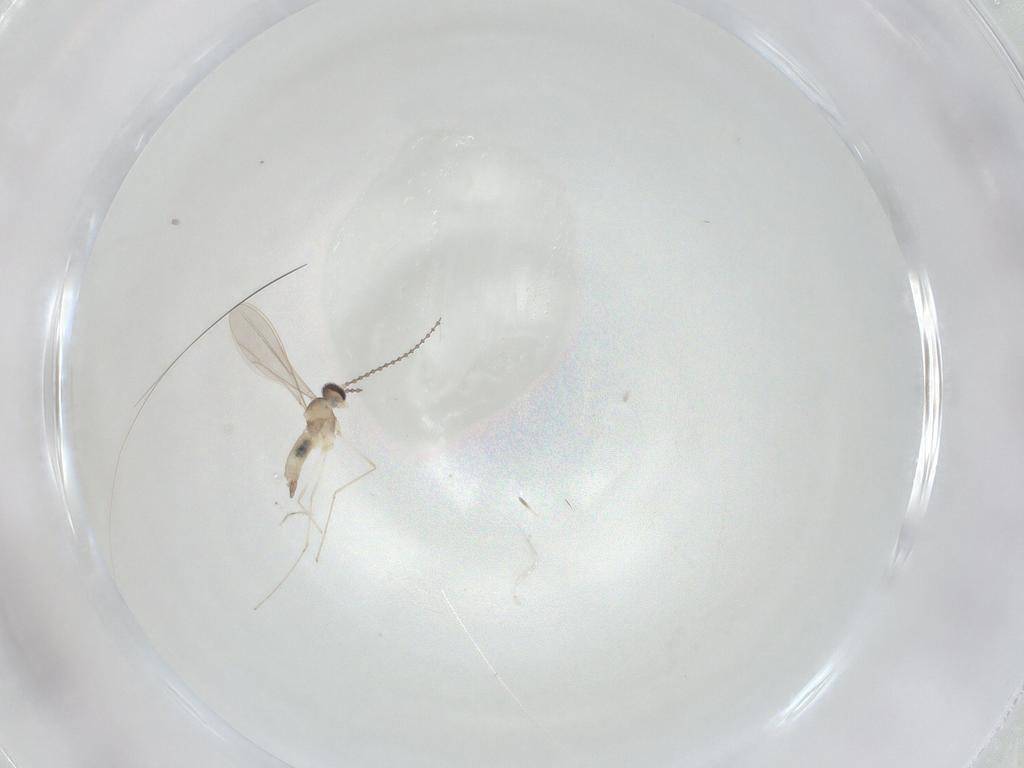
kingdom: Animalia
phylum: Arthropoda
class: Insecta
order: Diptera
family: Cecidomyiidae
